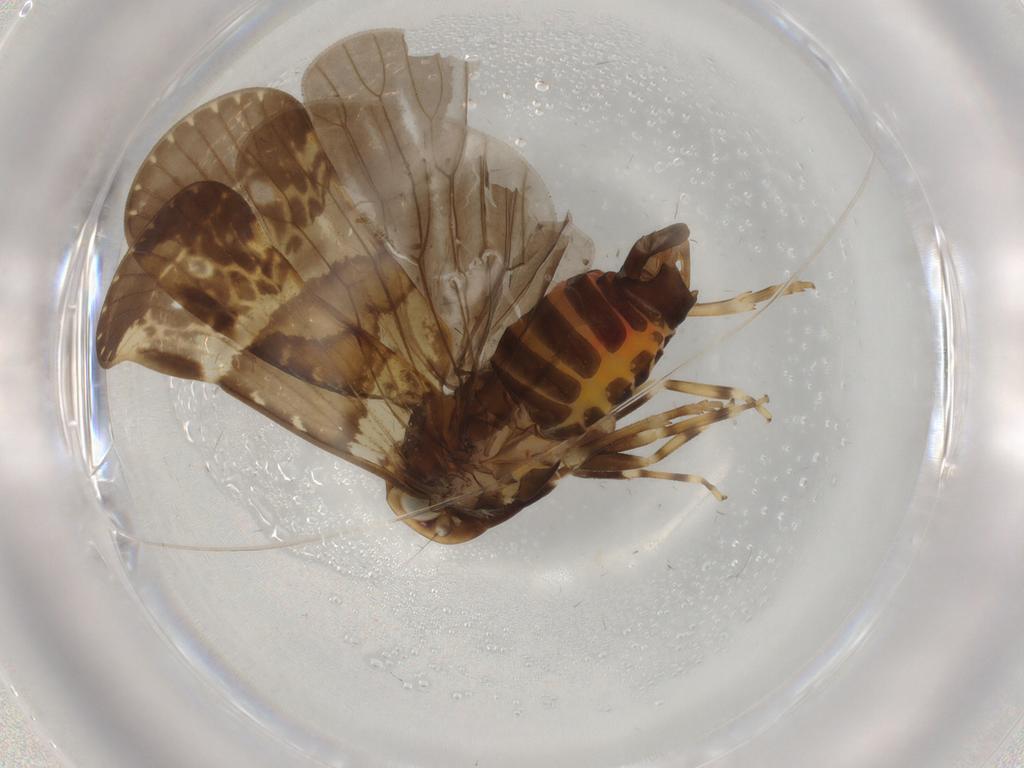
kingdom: Animalia
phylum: Arthropoda
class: Insecta
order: Hemiptera
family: Cixiidae
